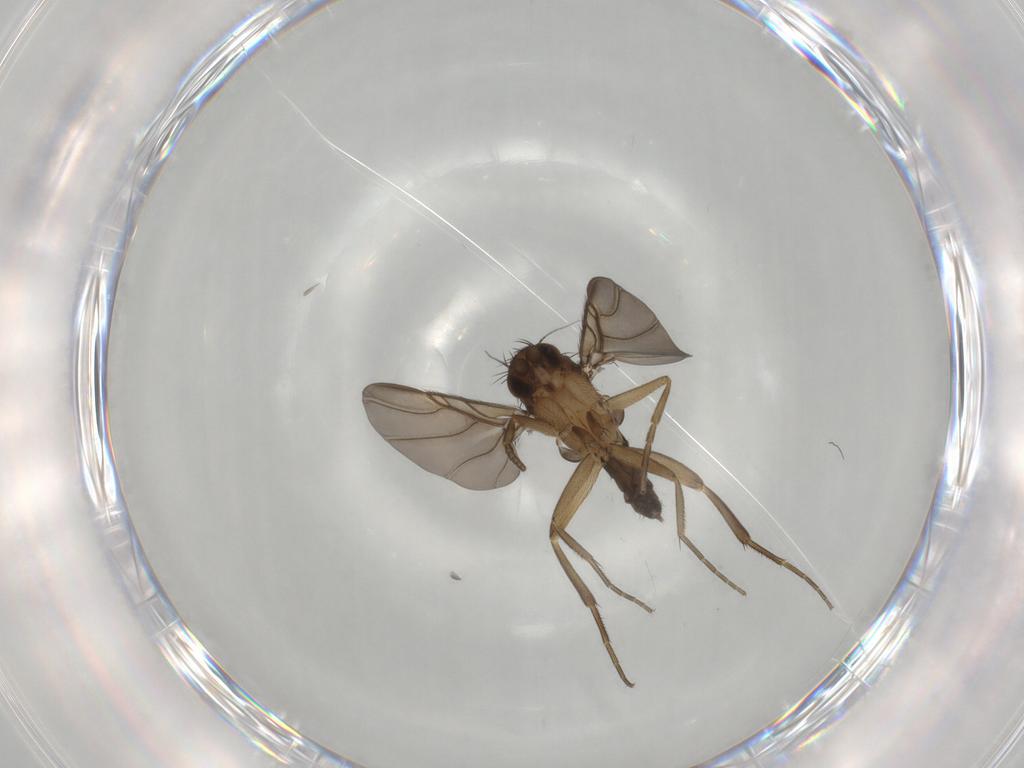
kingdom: Animalia
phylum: Arthropoda
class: Insecta
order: Diptera
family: Phoridae
